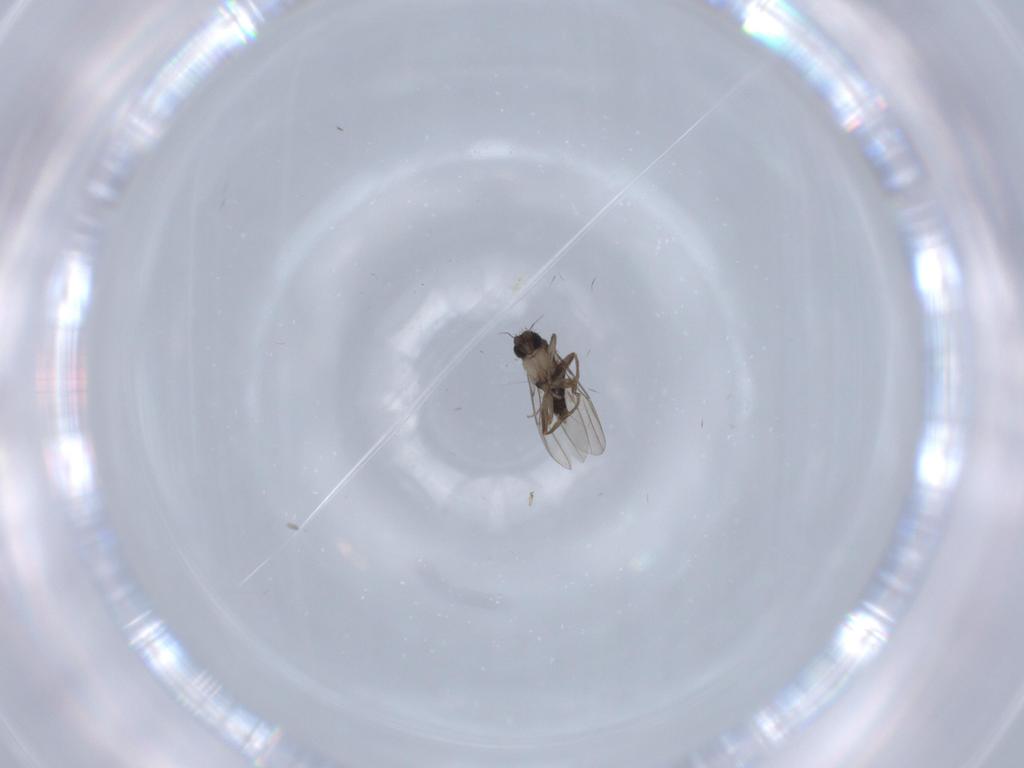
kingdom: Animalia
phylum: Arthropoda
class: Insecta
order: Diptera
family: Phoridae
